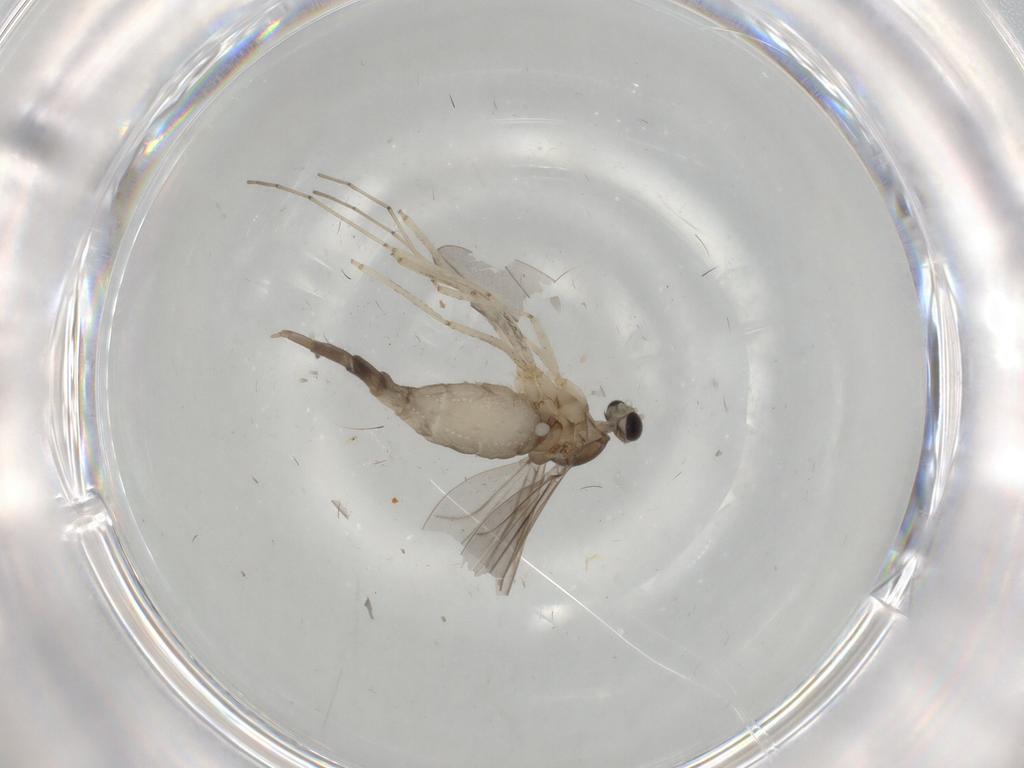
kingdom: Animalia
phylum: Arthropoda
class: Insecta
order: Diptera
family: Cecidomyiidae
